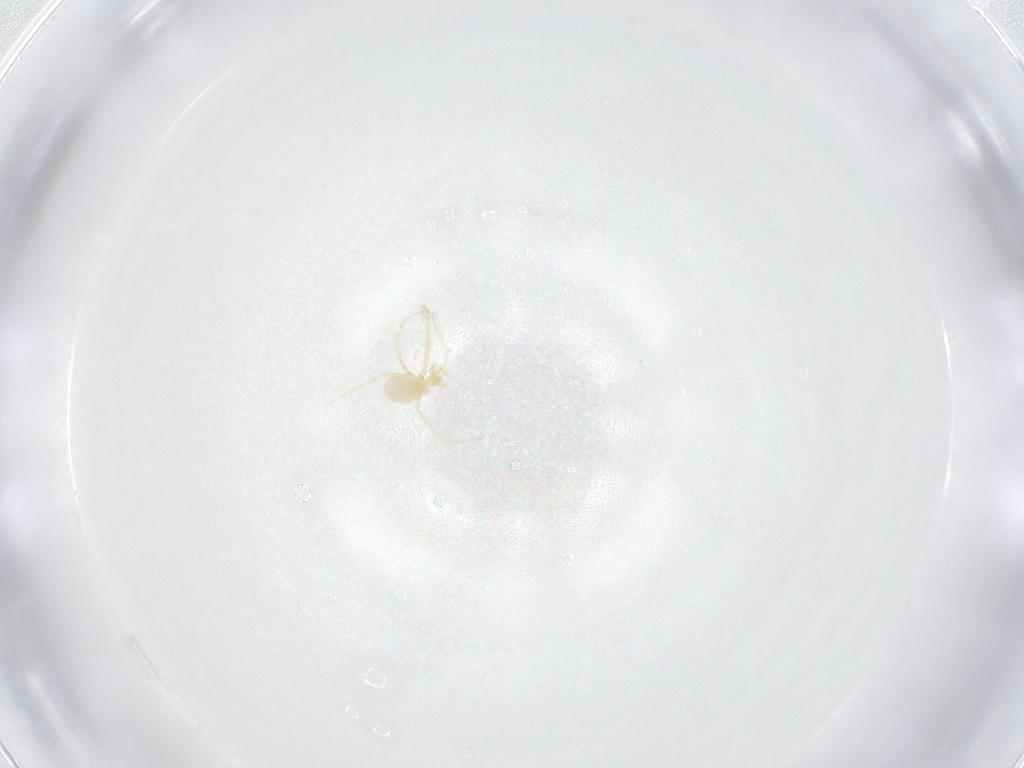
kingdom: Animalia
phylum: Arthropoda
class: Arachnida
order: Trombidiformes
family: Erythraeidae
